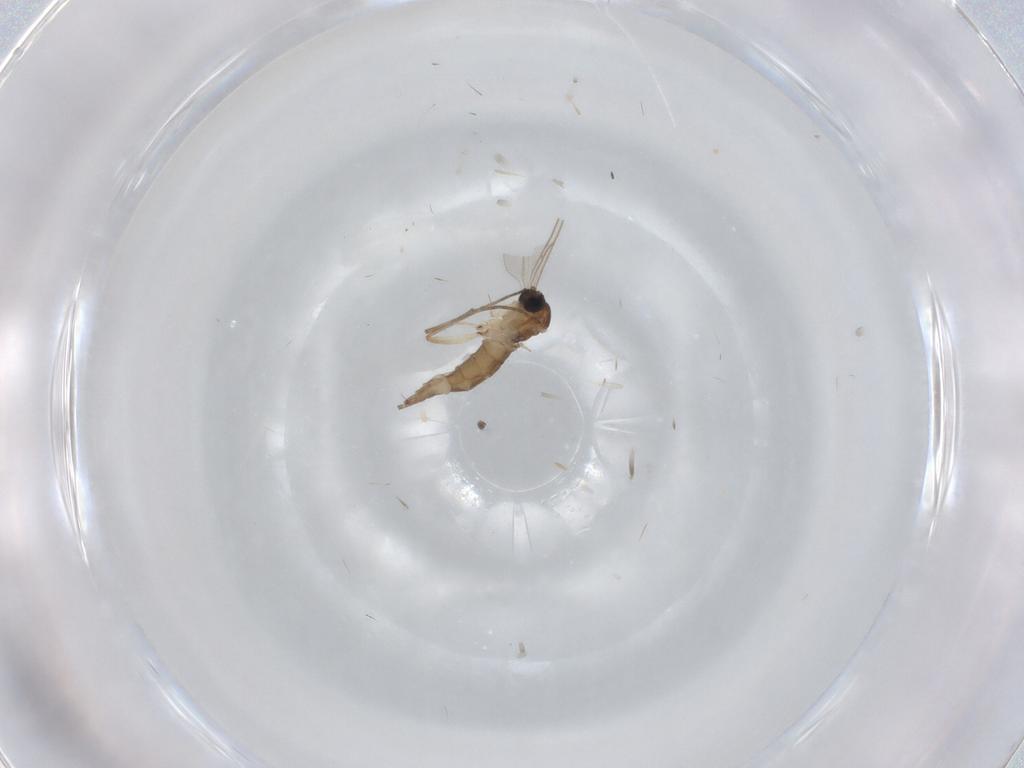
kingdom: Animalia
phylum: Arthropoda
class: Insecta
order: Diptera
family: Sciaridae
